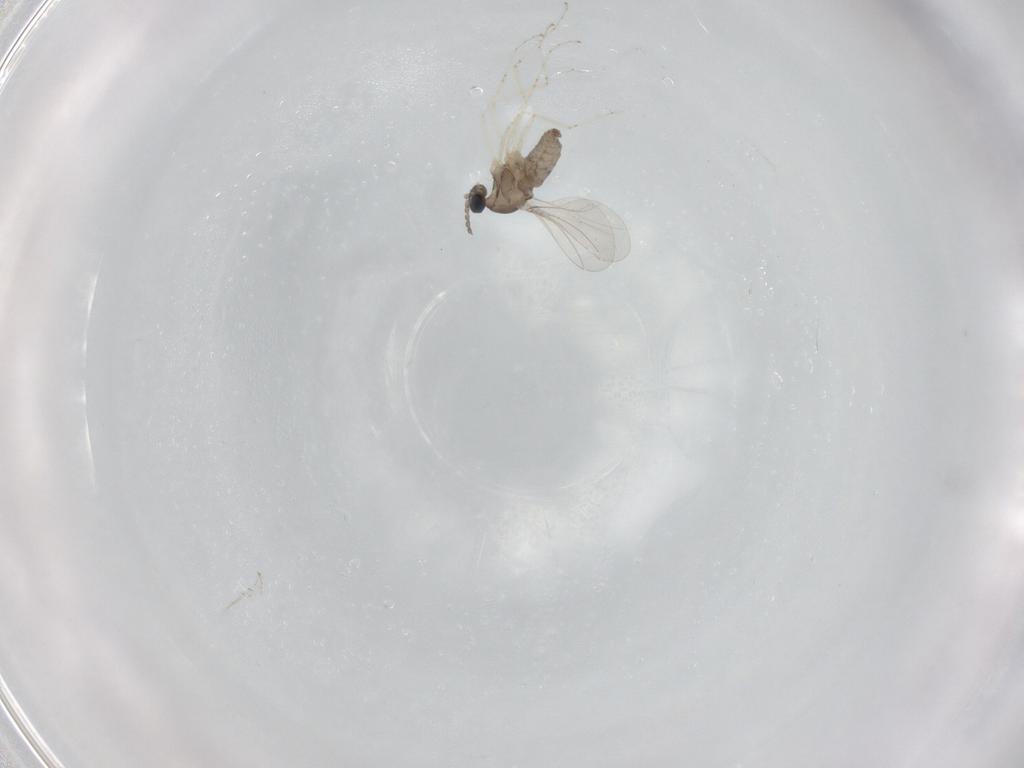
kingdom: Animalia
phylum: Arthropoda
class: Insecta
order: Diptera
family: Cecidomyiidae
